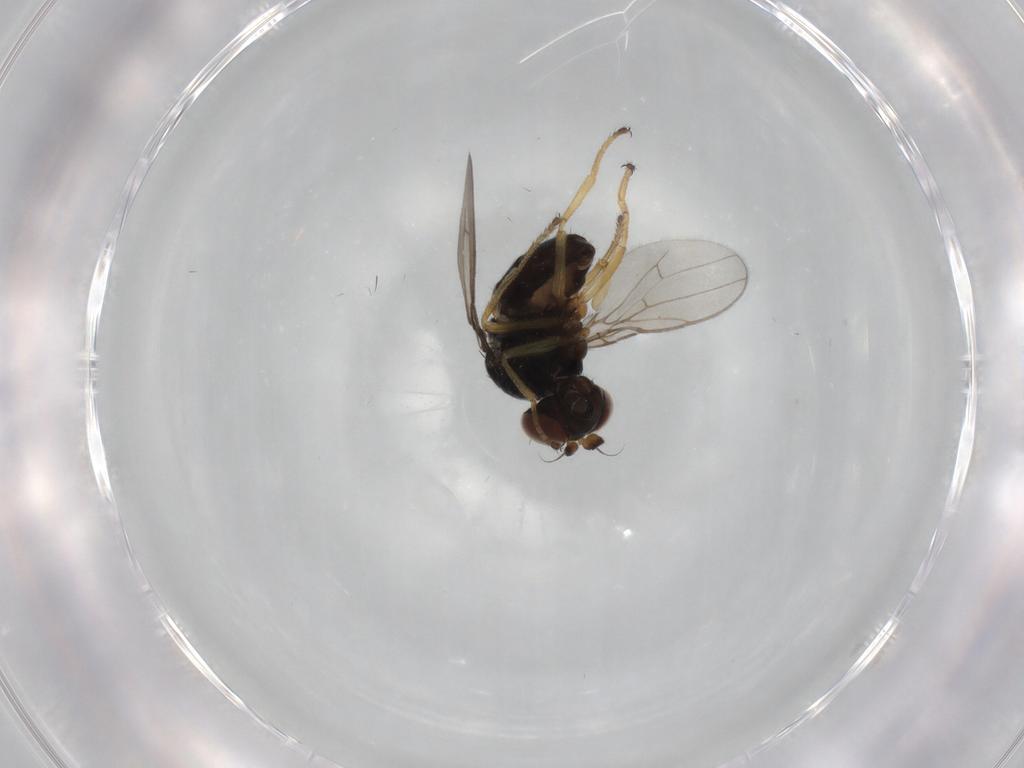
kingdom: Animalia
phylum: Arthropoda
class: Insecta
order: Diptera
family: Ephydridae
